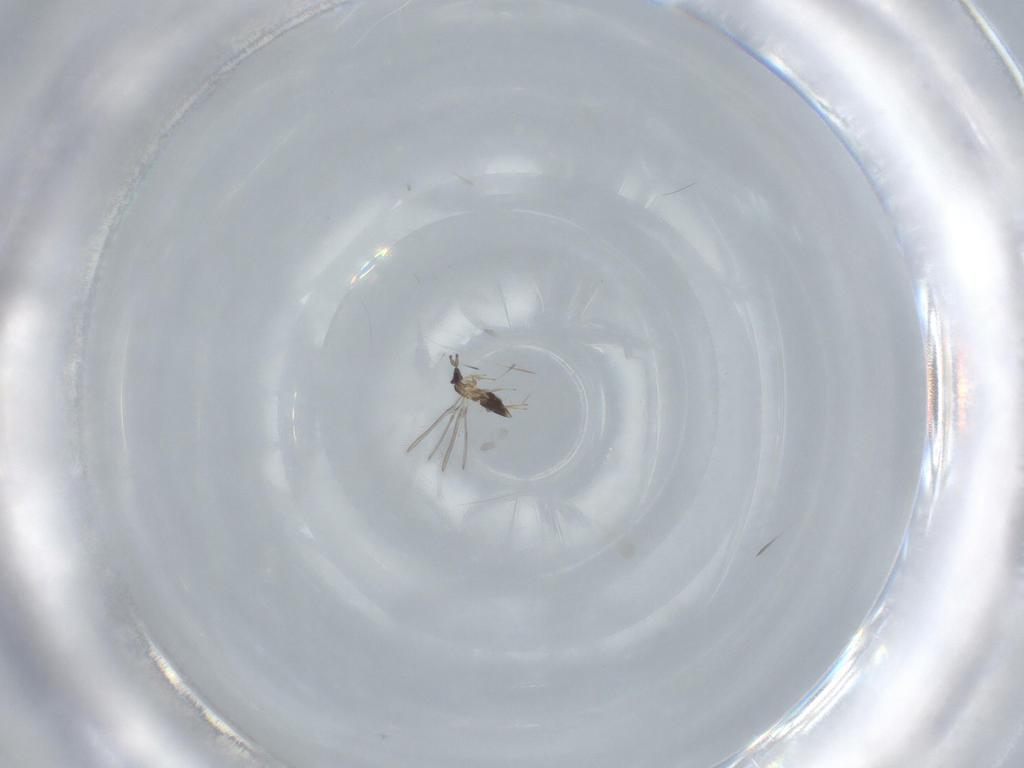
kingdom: Animalia
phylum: Arthropoda
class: Insecta
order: Hymenoptera
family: Mymaridae
